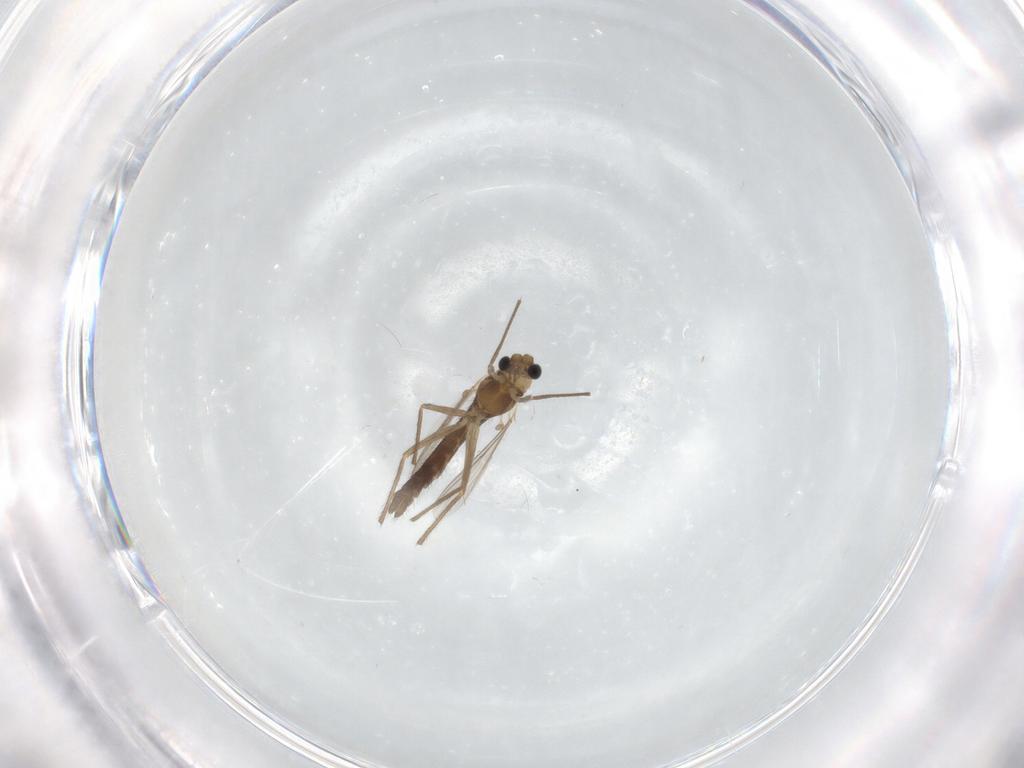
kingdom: Animalia
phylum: Arthropoda
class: Insecta
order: Diptera
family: Chironomidae
